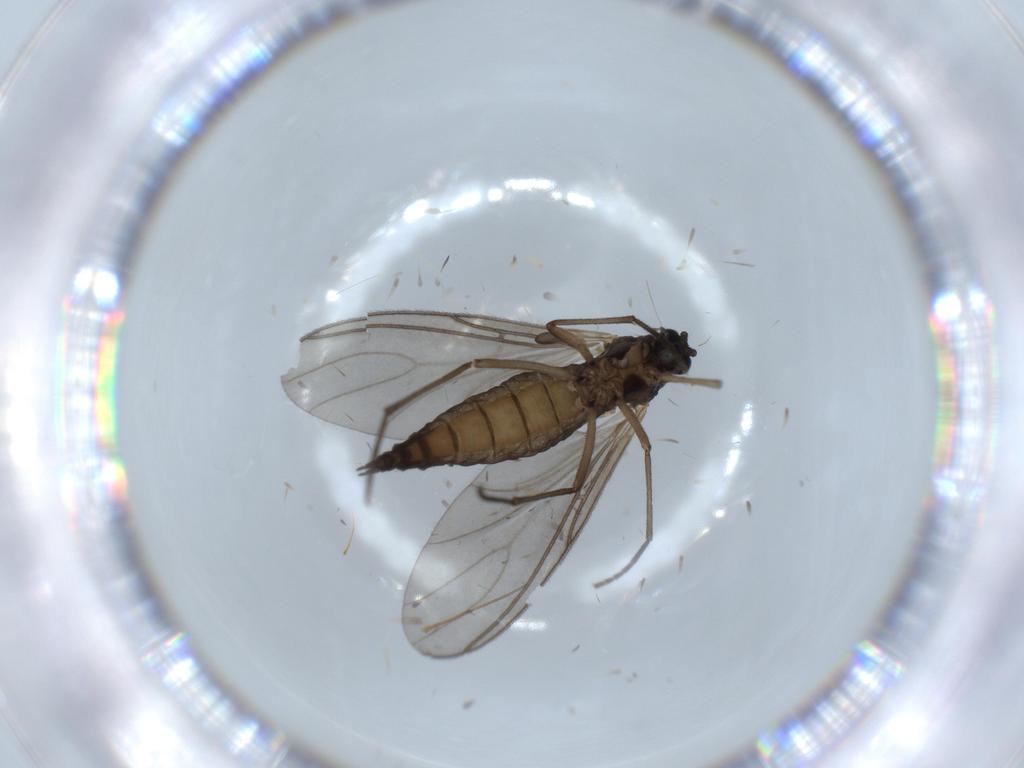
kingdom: Animalia
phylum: Arthropoda
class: Insecta
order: Diptera
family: Sciaridae
